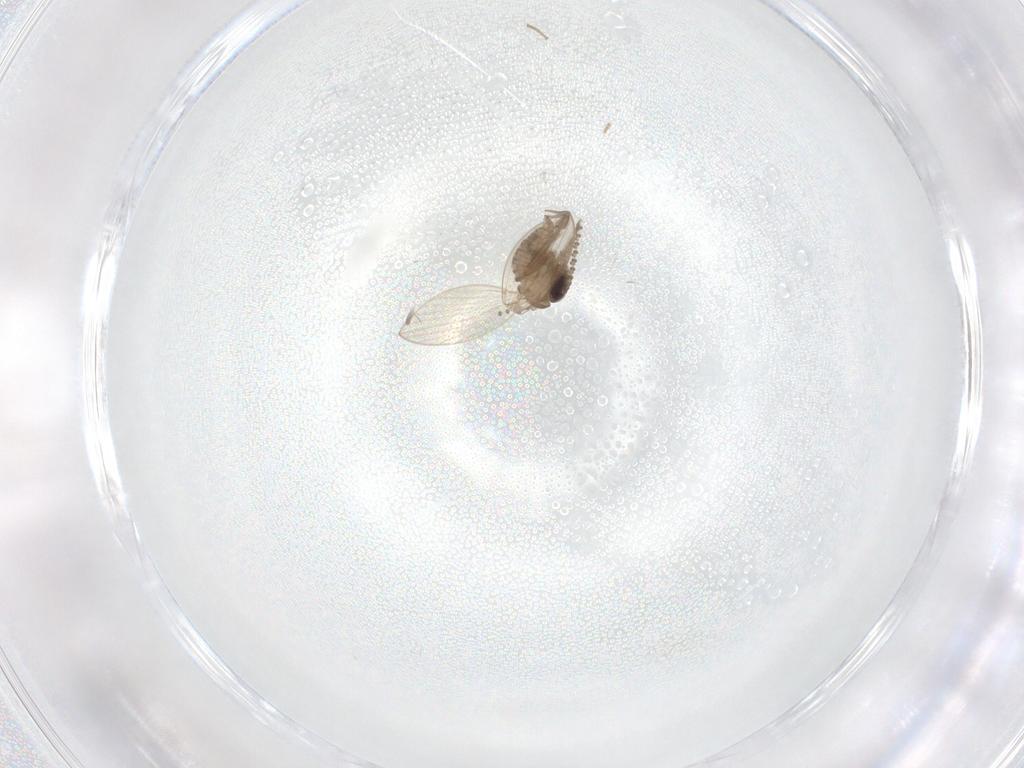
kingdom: Animalia
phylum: Arthropoda
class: Insecta
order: Diptera
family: Psychodidae
